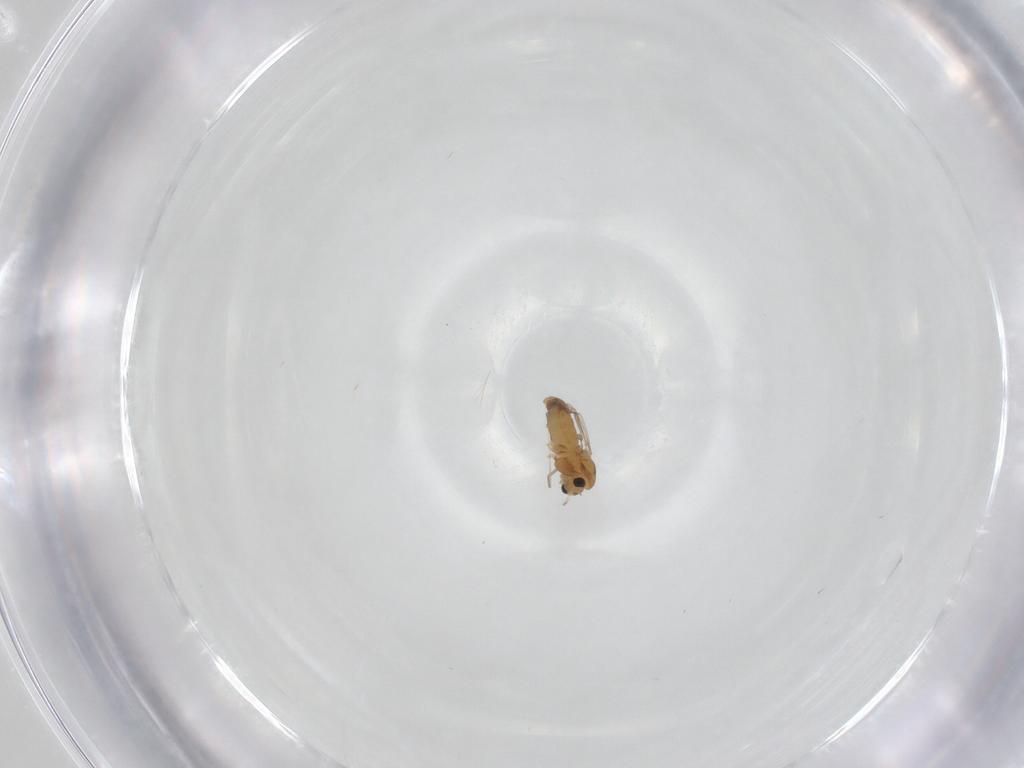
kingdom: Animalia
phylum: Arthropoda
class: Insecta
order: Diptera
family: Chironomidae
